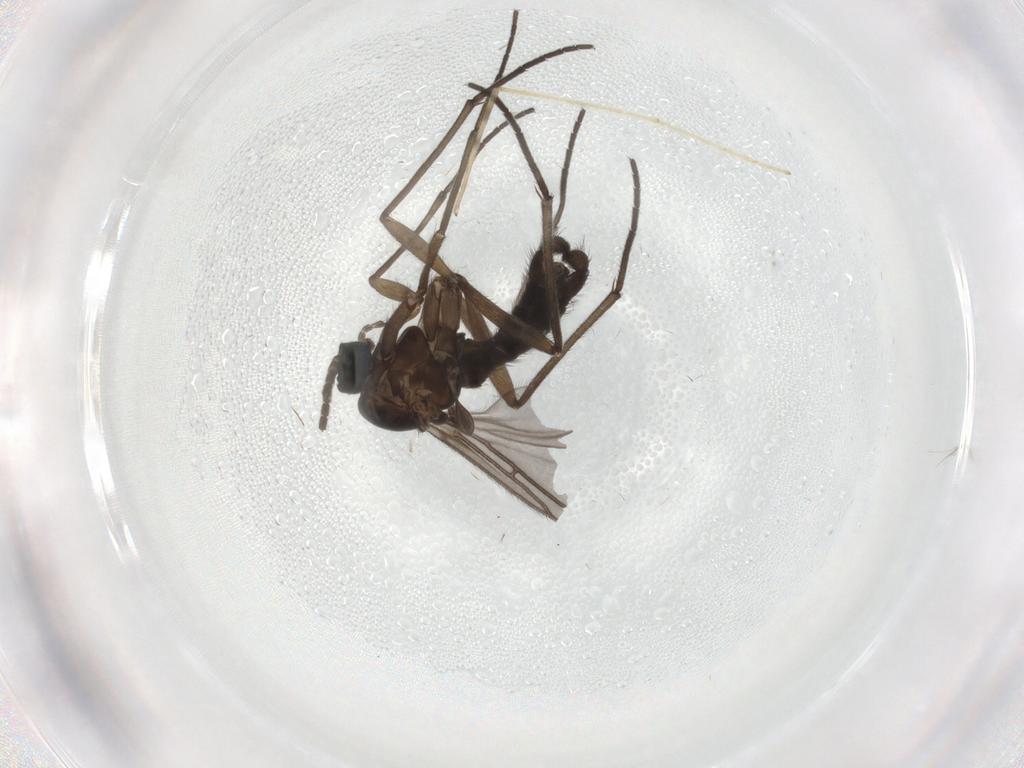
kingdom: Animalia
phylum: Arthropoda
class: Insecta
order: Diptera
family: Sciaridae
